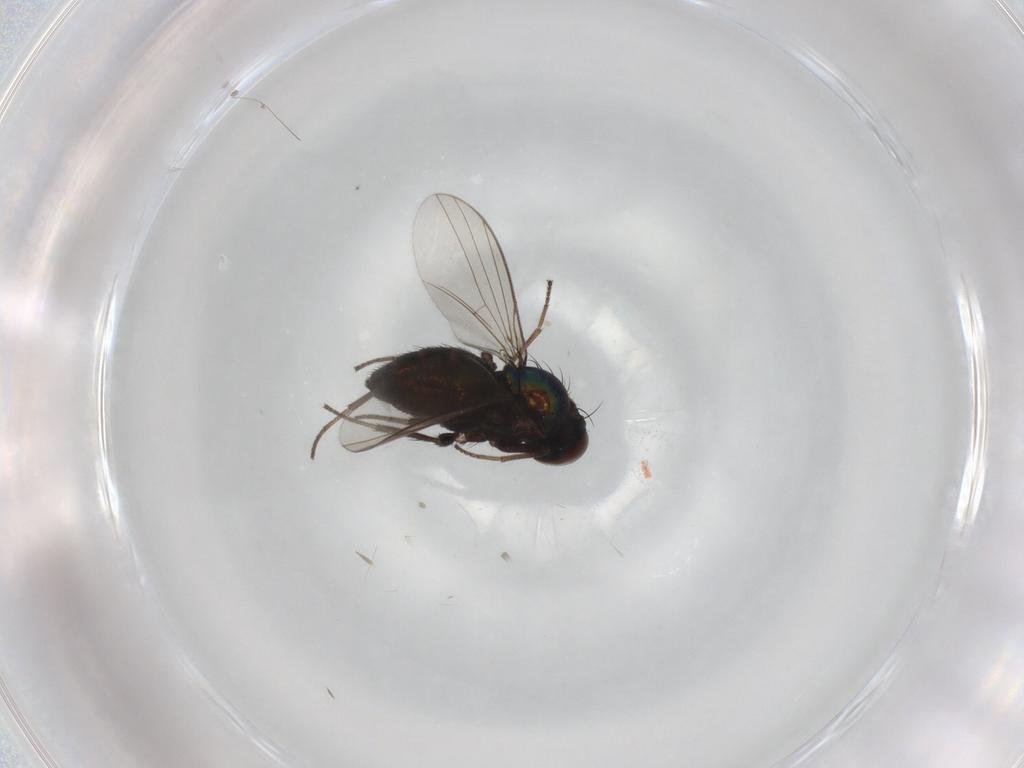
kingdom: Animalia
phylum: Arthropoda
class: Insecta
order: Diptera
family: Dolichopodidae
